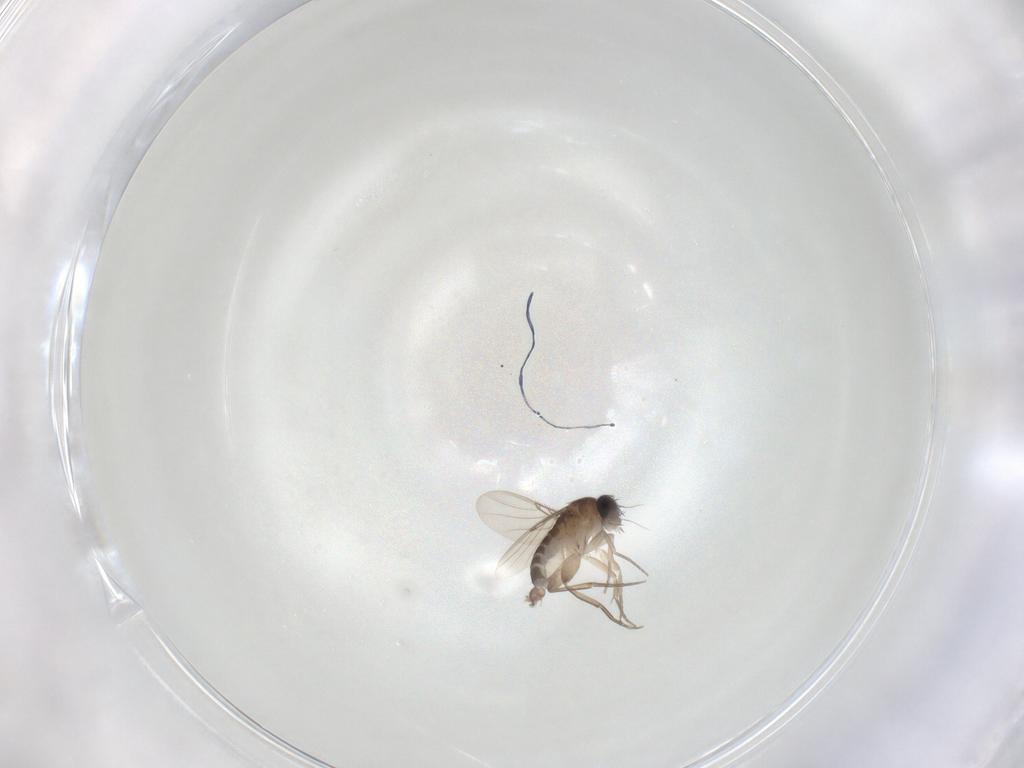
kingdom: Animalia
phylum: Arthropoda
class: Insecta
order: Diptera
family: Phoridae
